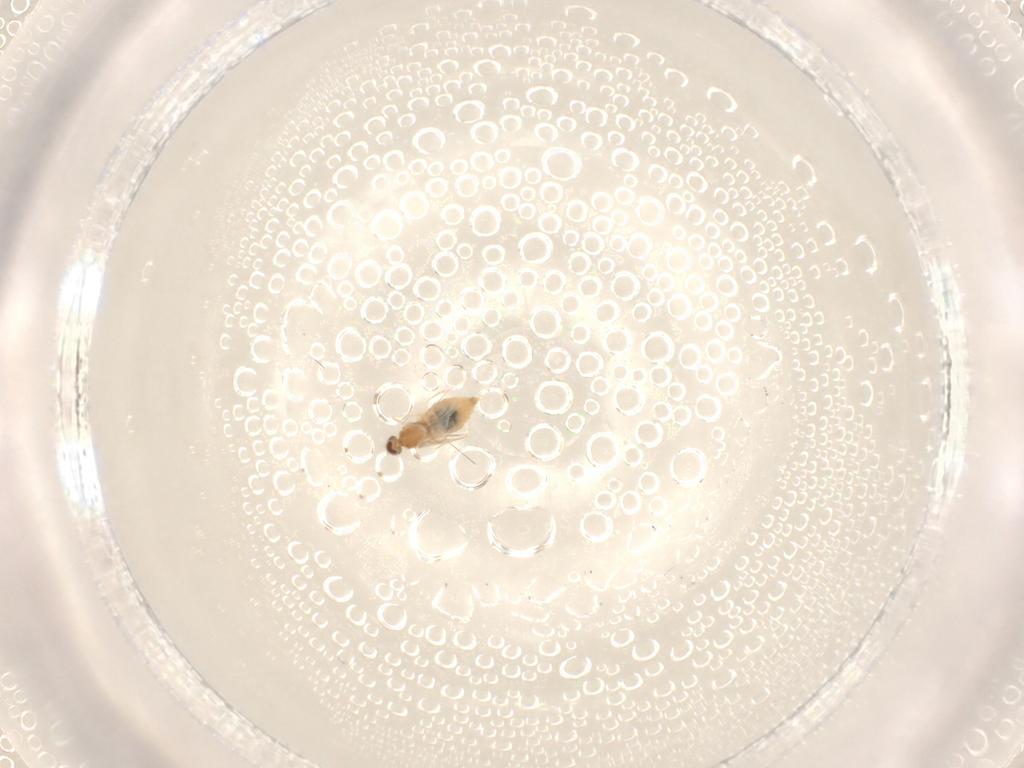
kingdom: Animalia
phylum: Arthropoda
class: Insecta
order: Diptera
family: Cecidomyiidae
